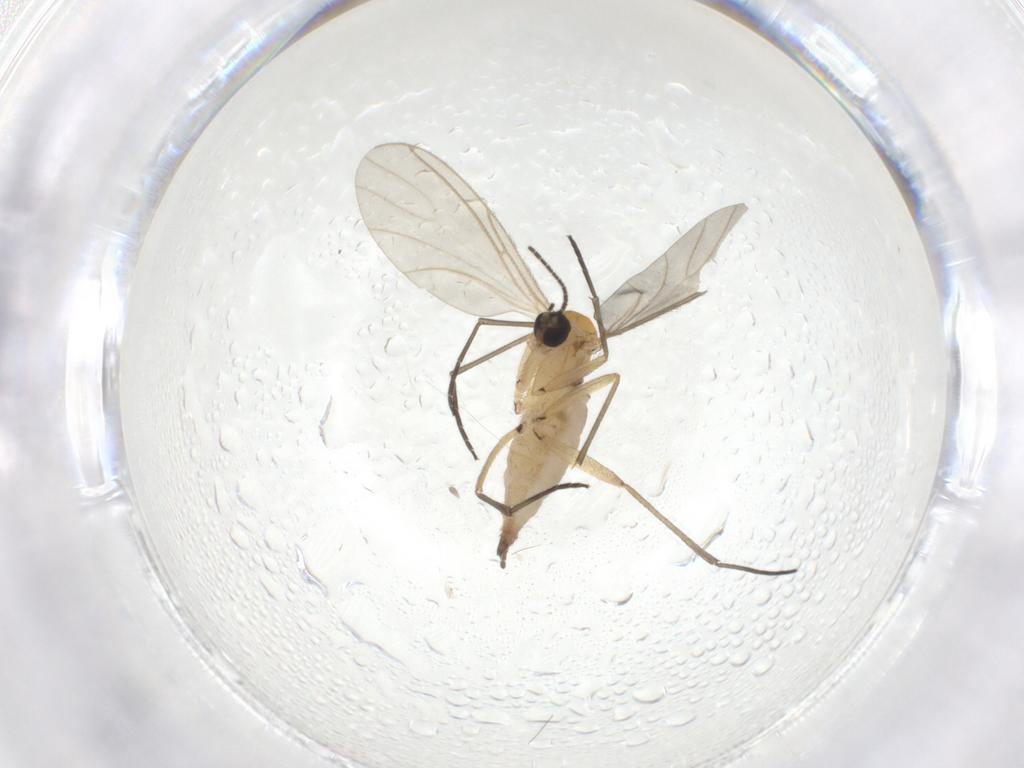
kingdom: Animalia
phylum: Arthropoda
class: Insecta
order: Diptera
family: Sciaridae
